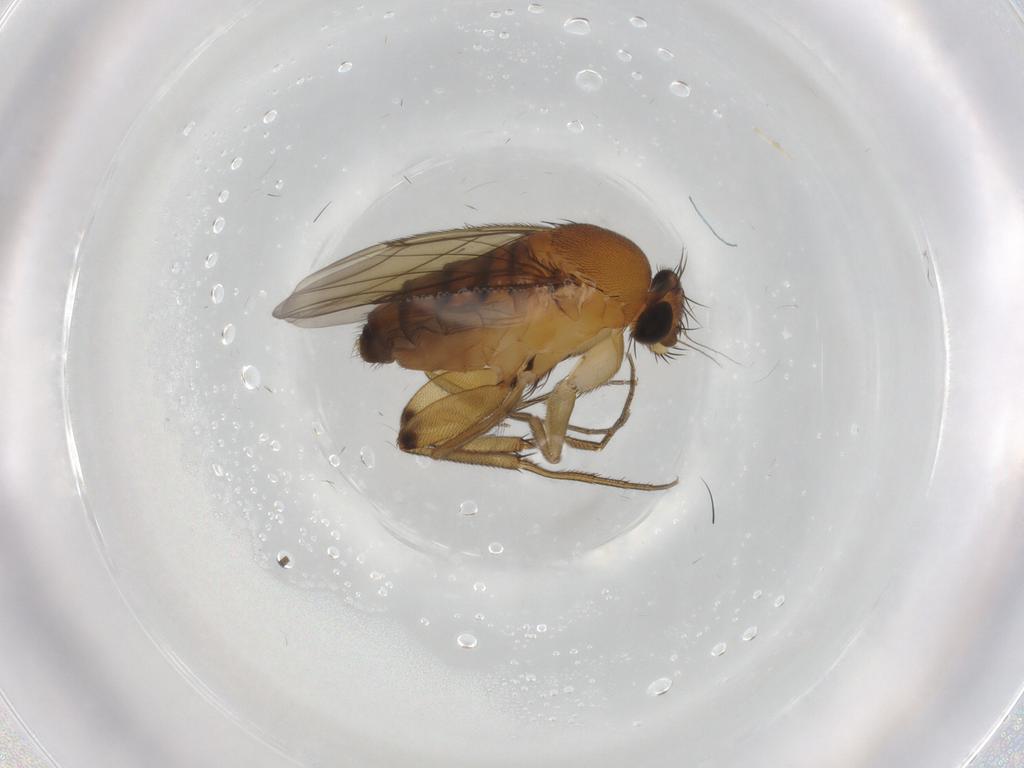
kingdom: Animalia
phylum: Arthropoda
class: Insecta
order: Diptera
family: Phoridae
